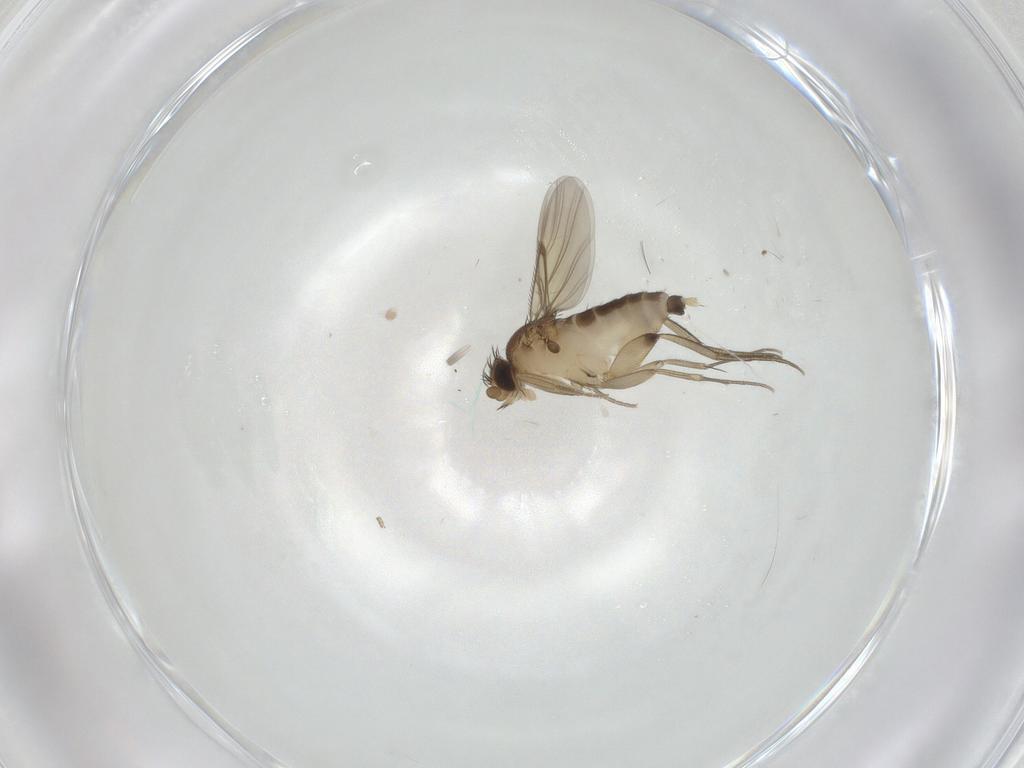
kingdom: Animalia
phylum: Arthropoda
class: Insecta
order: Diptera
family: Phoridae
